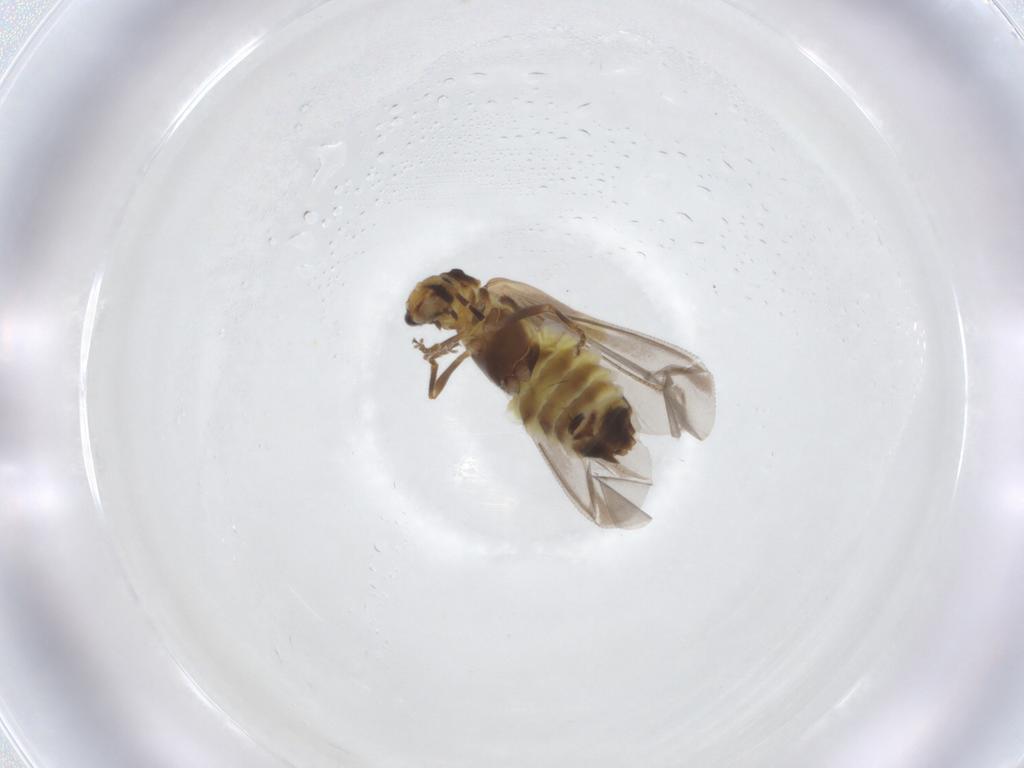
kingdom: Animalia
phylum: Arthropoda
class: Insecta
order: Coleoptera
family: Cantharidae
